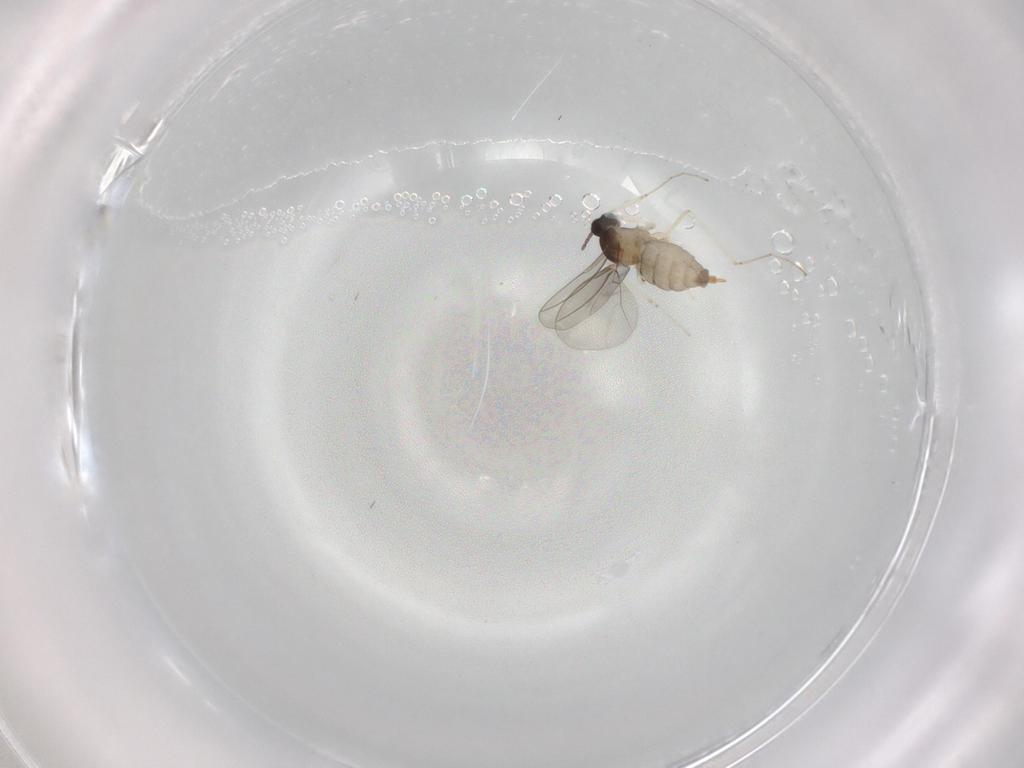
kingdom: Animalia
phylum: Arthropoda
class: Insecta
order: Diptera
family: Cecidomyiidae
